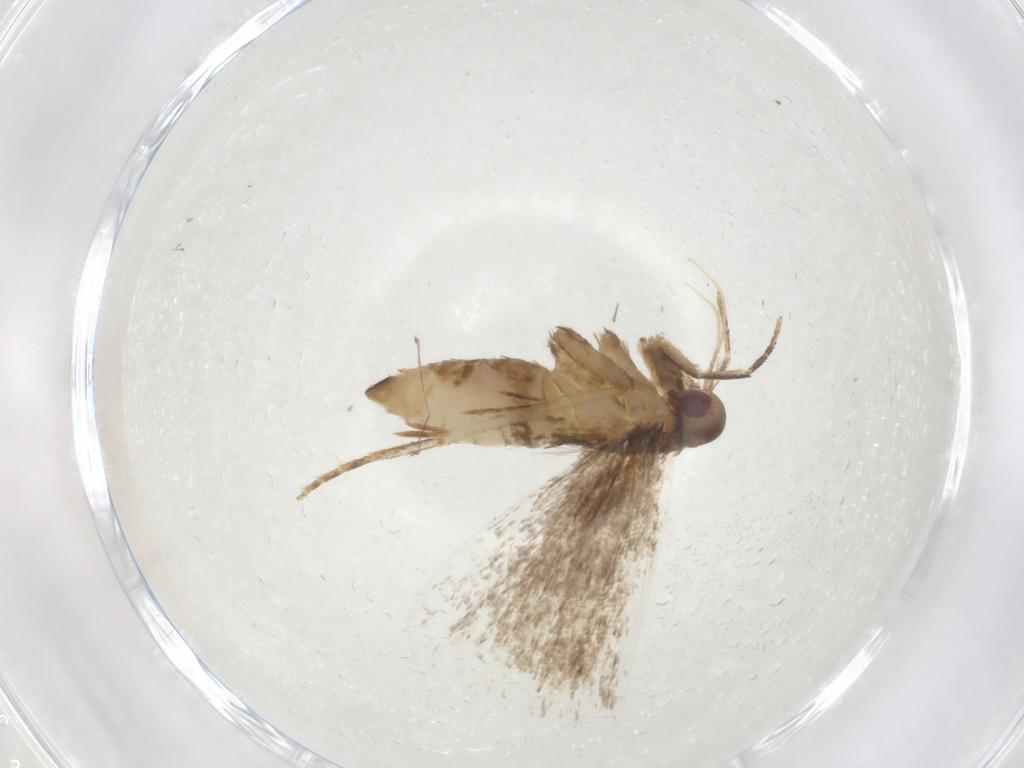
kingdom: Animalia
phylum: Arthropoda
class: Insecta
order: Lepidoptera
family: Gelechiidae
